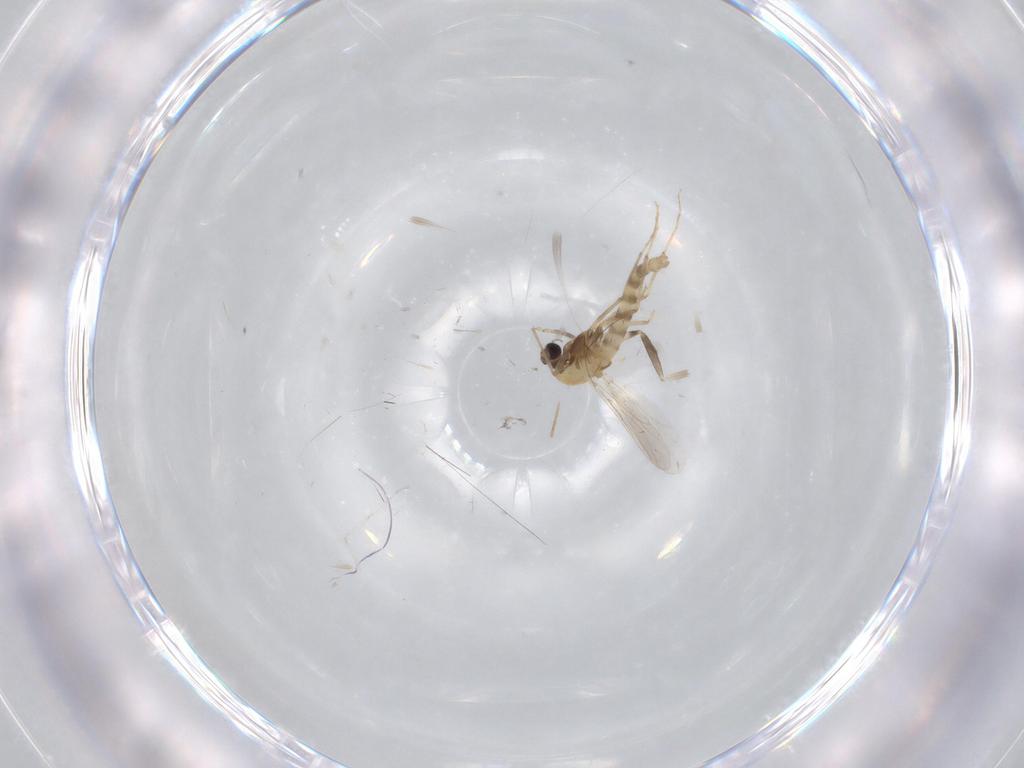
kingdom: Animalia
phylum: Arthropoda
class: Insecta
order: Diptera
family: Chironomidae
